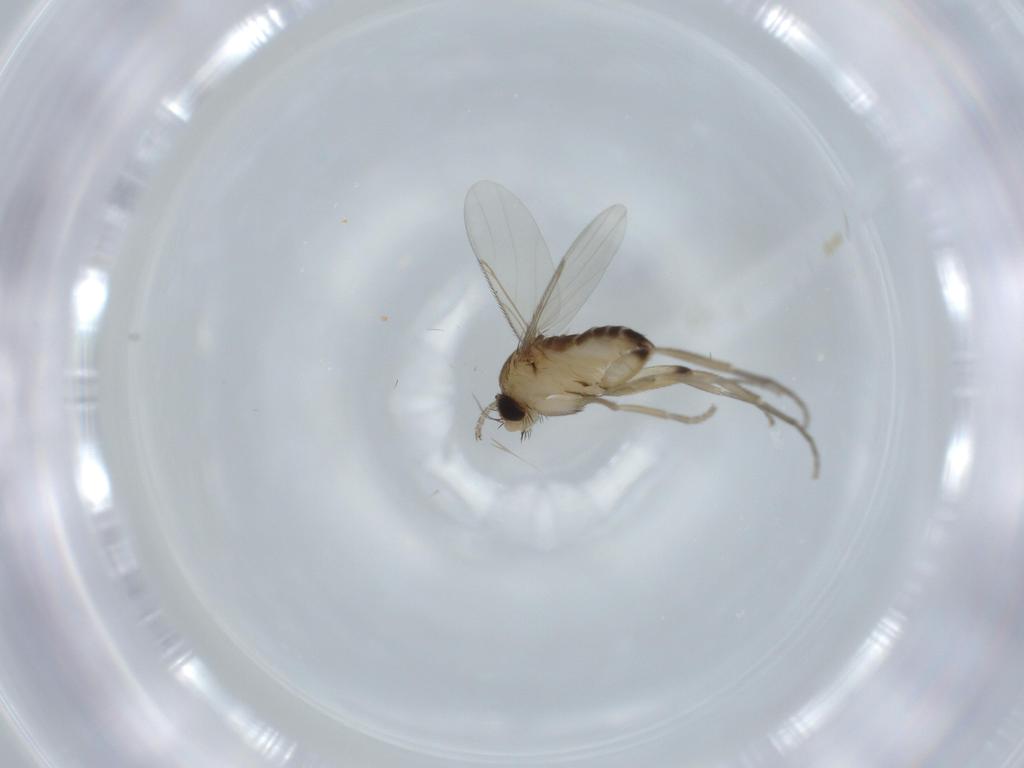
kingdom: Animalia
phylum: Arthropoda
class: Insecta
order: Diptera
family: Phoridae
